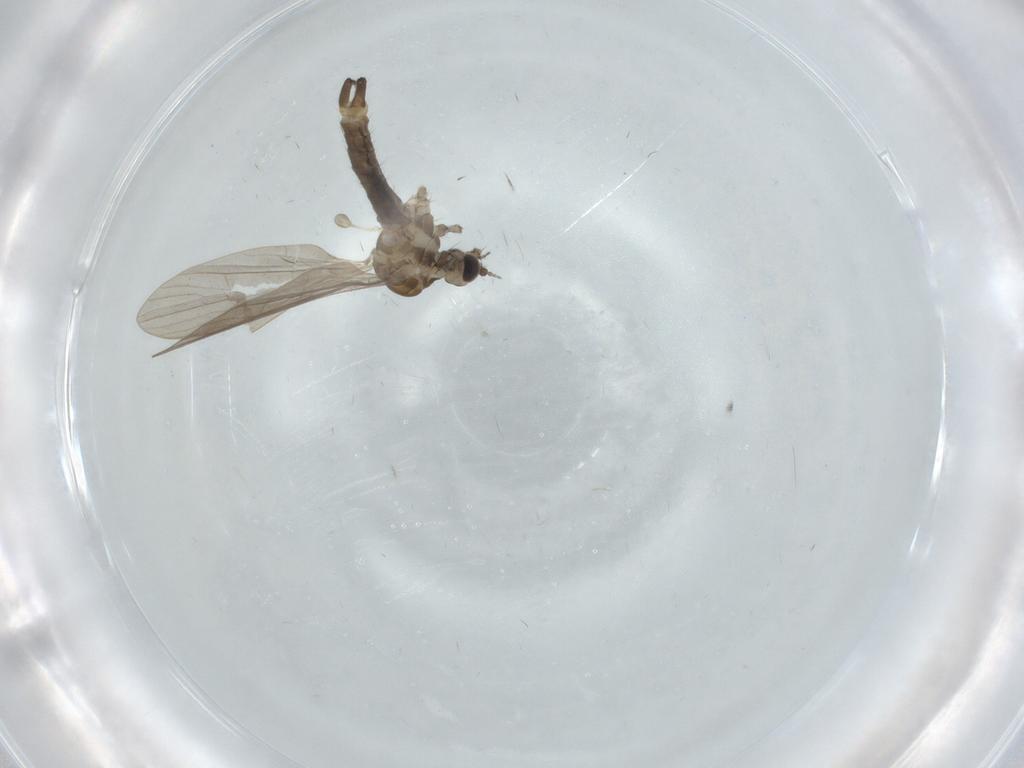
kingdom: Animalia
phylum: Arthropoda
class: Insecta
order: Diptera
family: Limoniidae
